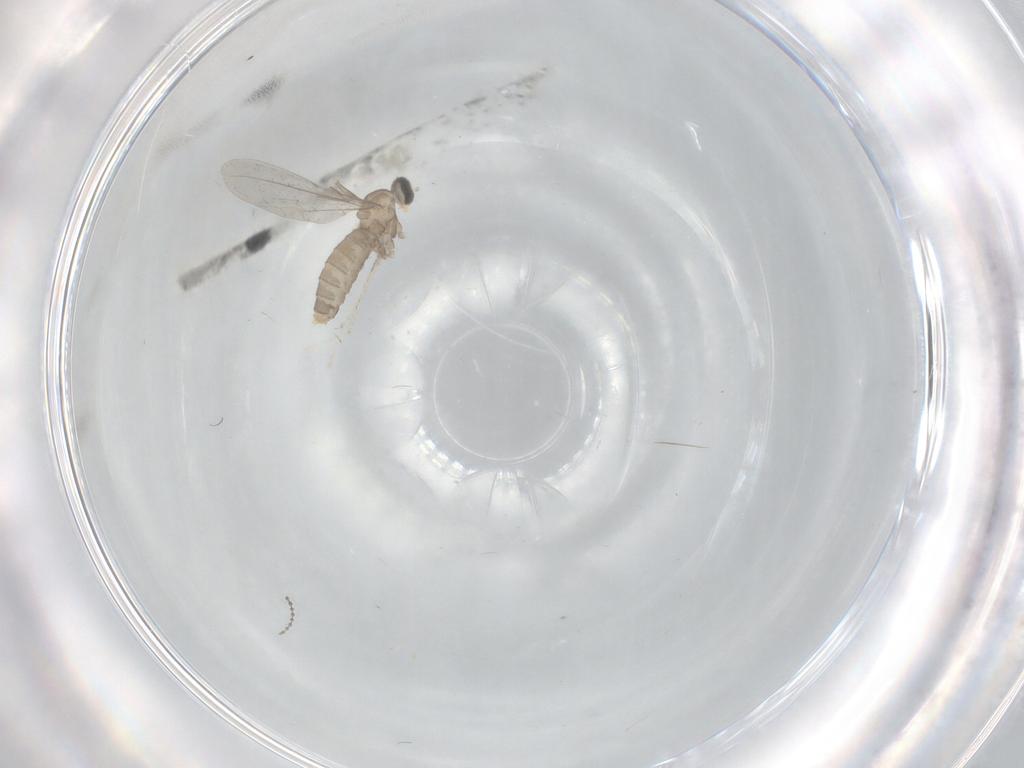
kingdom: Animalia
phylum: Arthropoda
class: Insecta
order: Diptera
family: Cecidomyiidae
